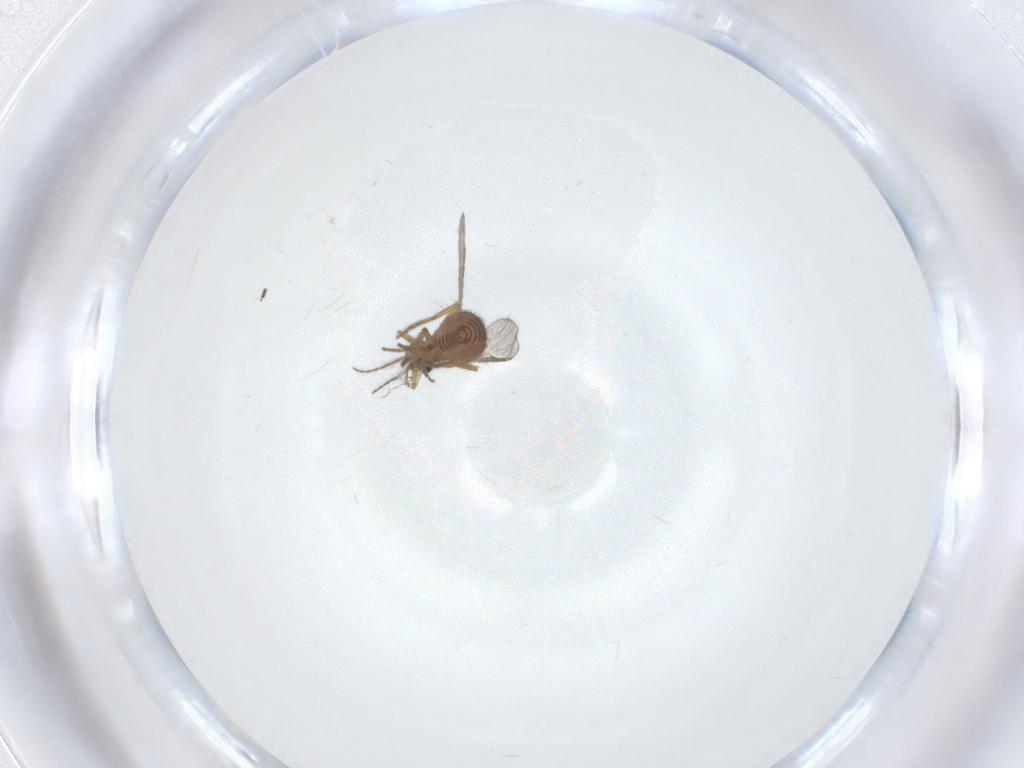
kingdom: Animalia
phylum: Arthropoda
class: Insecta
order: Diptera
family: Ceratopogonidae
